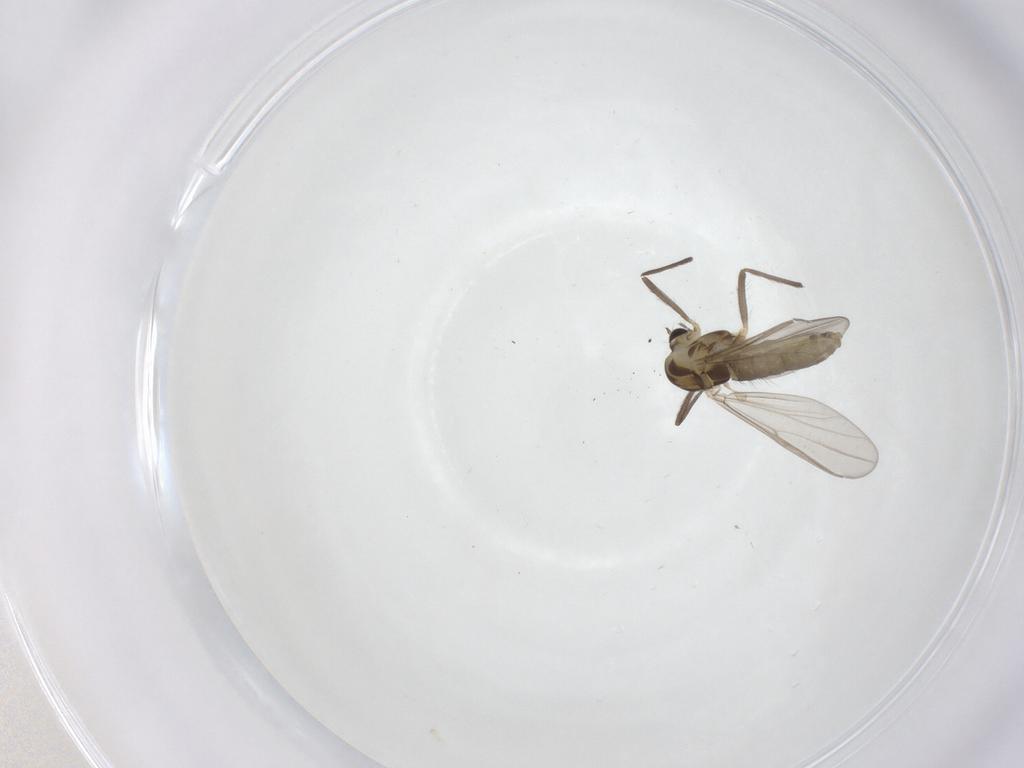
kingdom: Animalia
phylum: Arthropoda
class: Insecta
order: Diptera
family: Chironomidae
